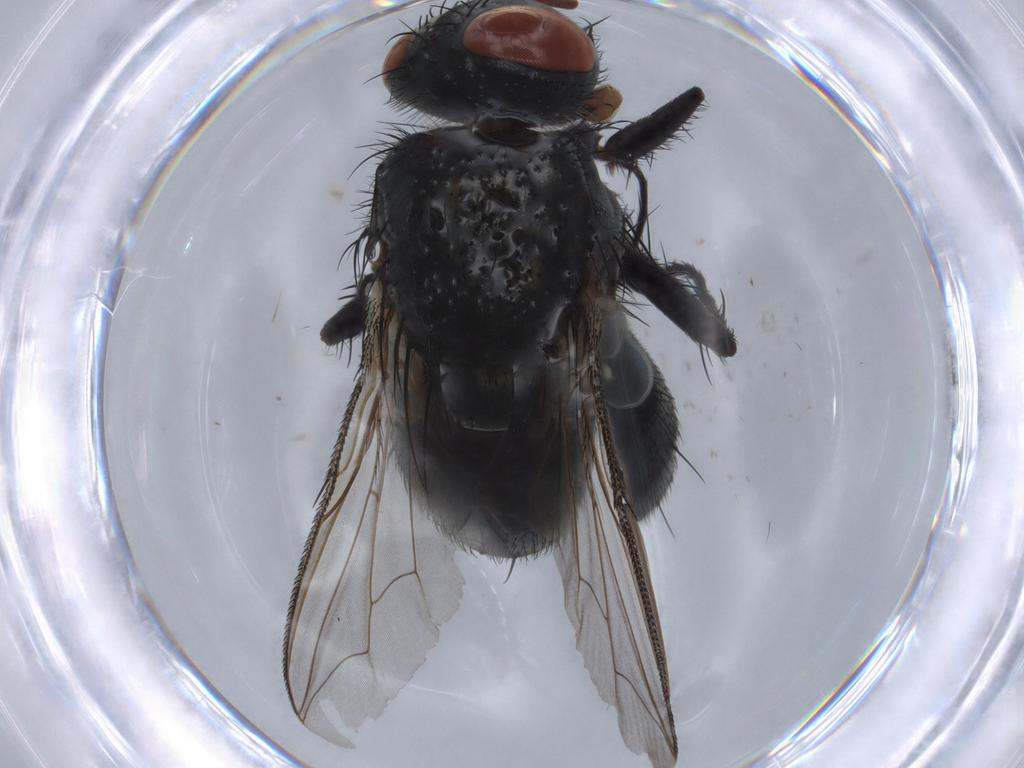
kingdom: Animalia
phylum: Arthropoda
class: Insecta
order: Diptera
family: Sarcophagidae
